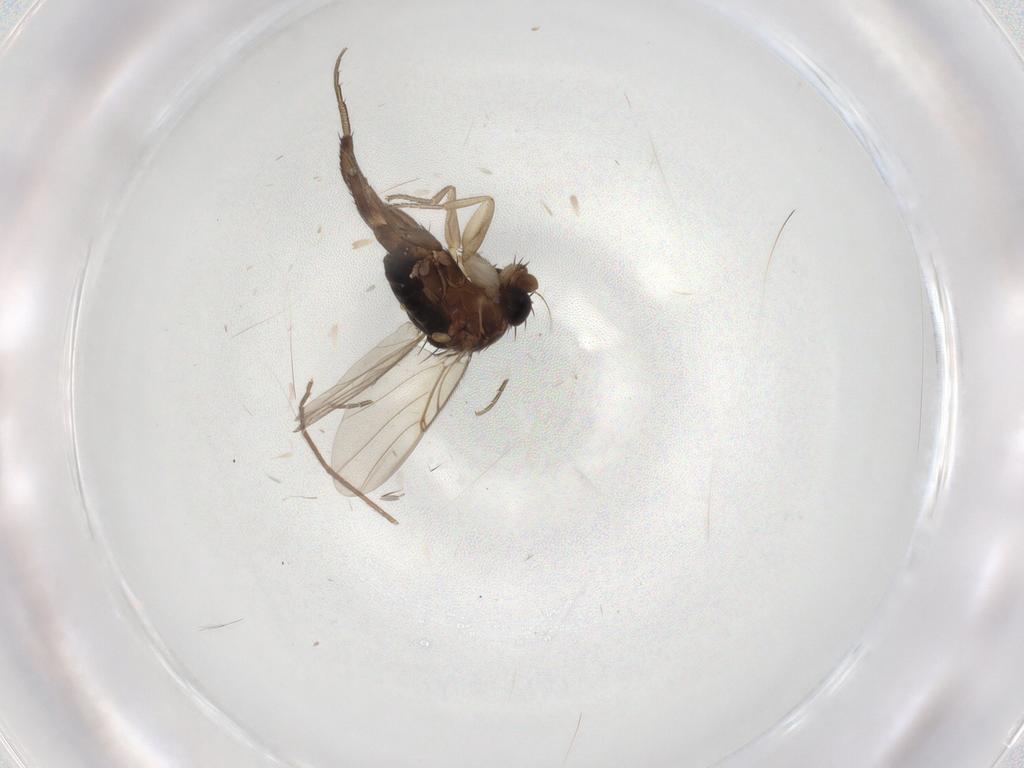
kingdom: Animalia
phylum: Arthropoda
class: Insecta
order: Diptera
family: Phoridae
